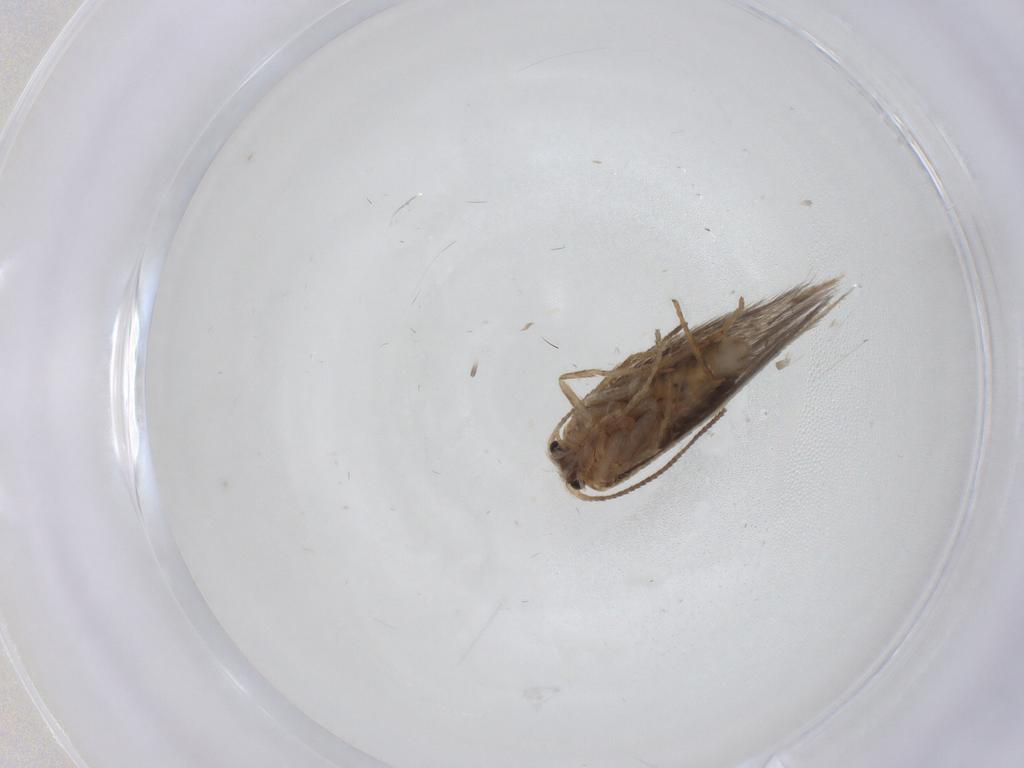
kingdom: Animalia
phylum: Arthropoda
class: Insecta
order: Lepidoptera
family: Nepticulidae
